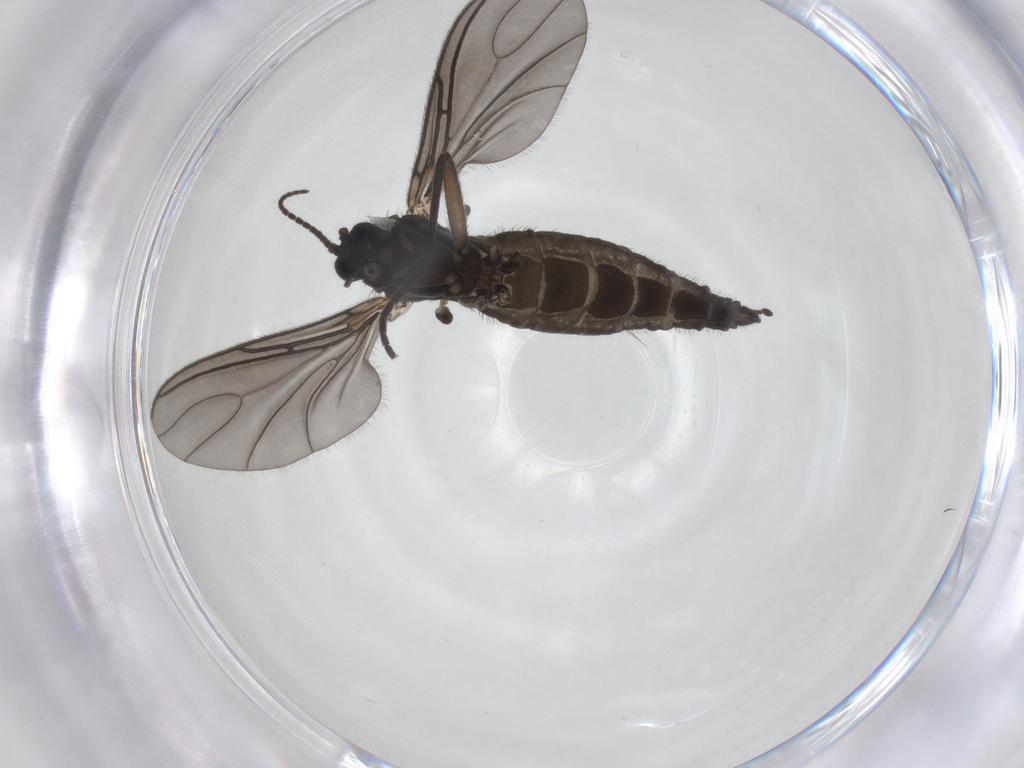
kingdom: Animalia
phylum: Arthropoda
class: Insecta
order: Diptera
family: Sciaridae
